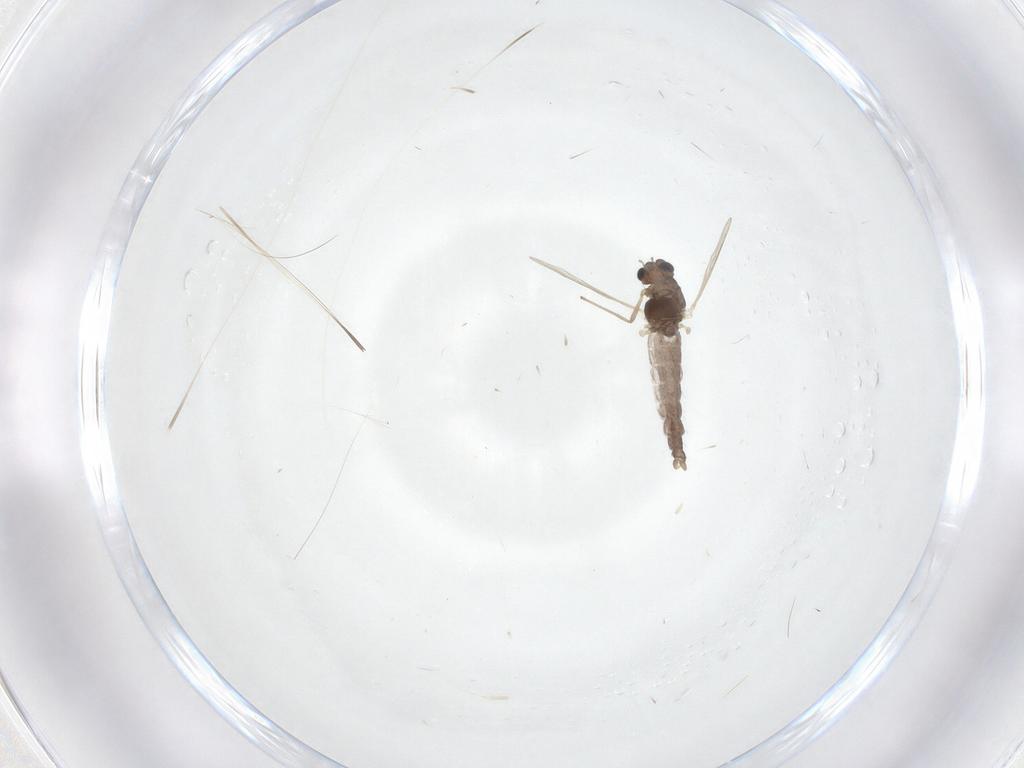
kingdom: Animalia
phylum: Arthropoda
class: Insecta
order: Diptera
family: Chironomidae
